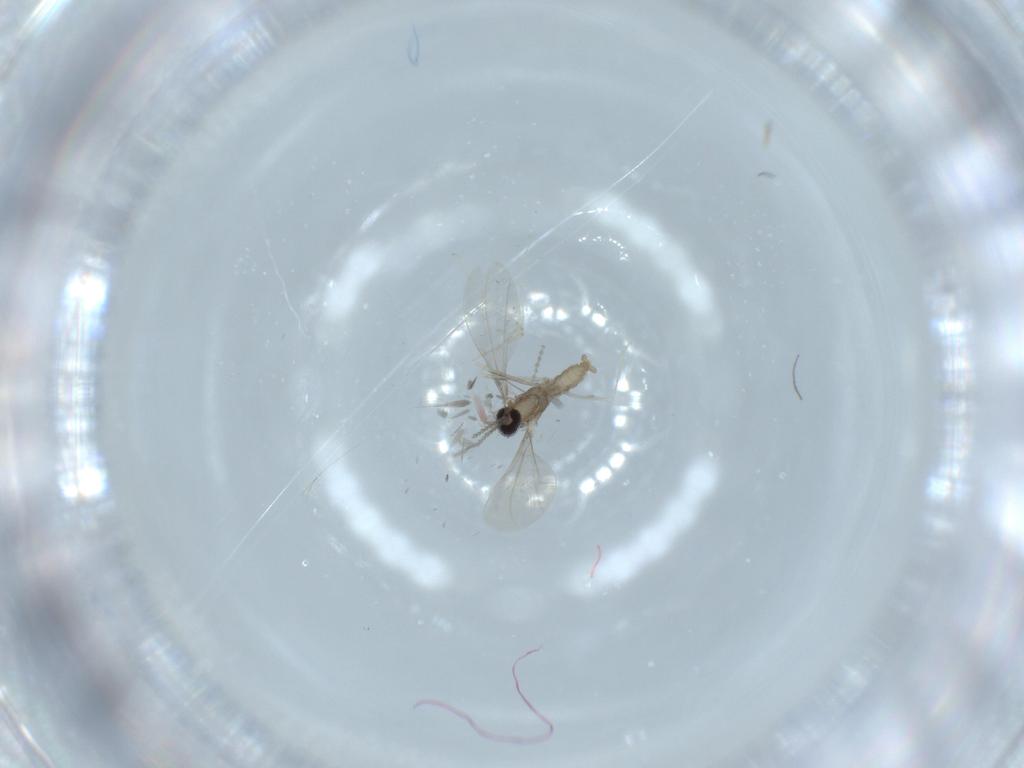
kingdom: Animalia
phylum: Arthropoda
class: Insecta
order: Diptera
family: Cecidomyiidae
